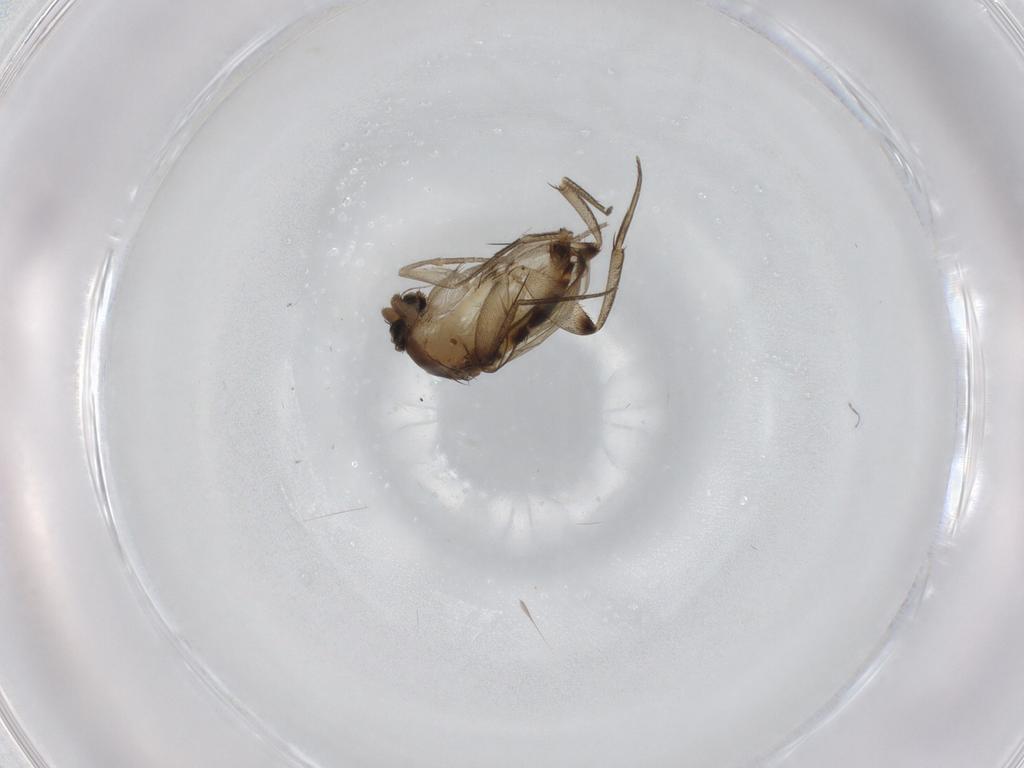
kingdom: Animalia
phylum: Arthropoda
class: Insecta
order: Diptera
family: Phoridae
